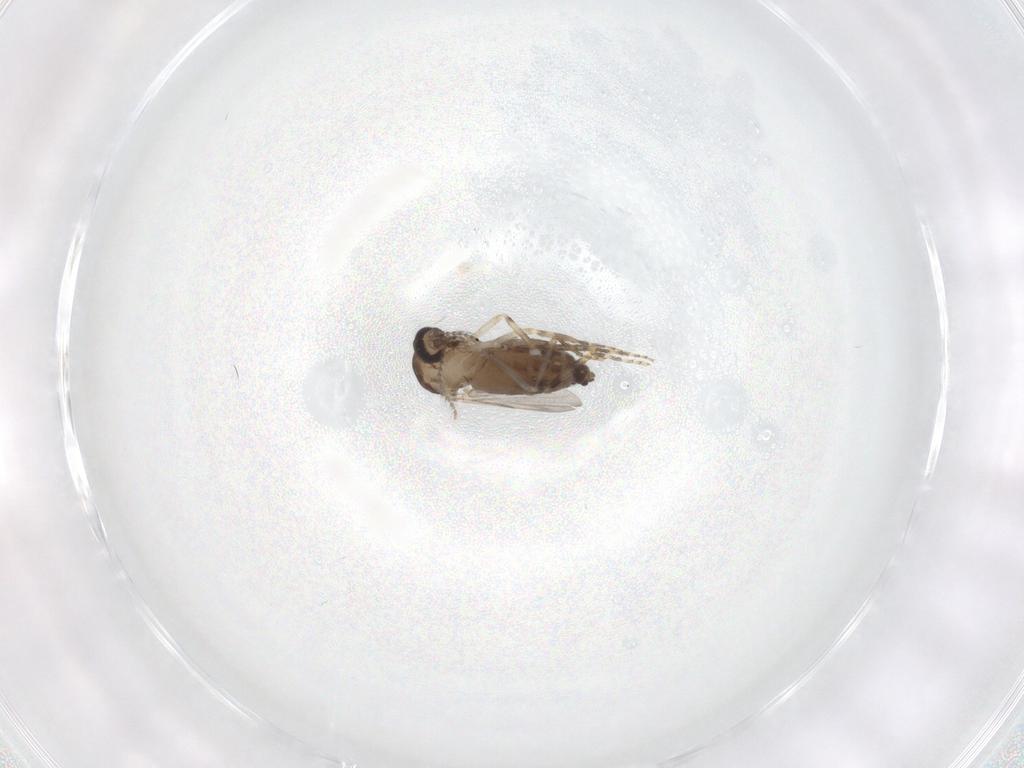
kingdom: Animalia
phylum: Arthropoda
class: Insecta
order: Diptera
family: Ceratopogonidae
